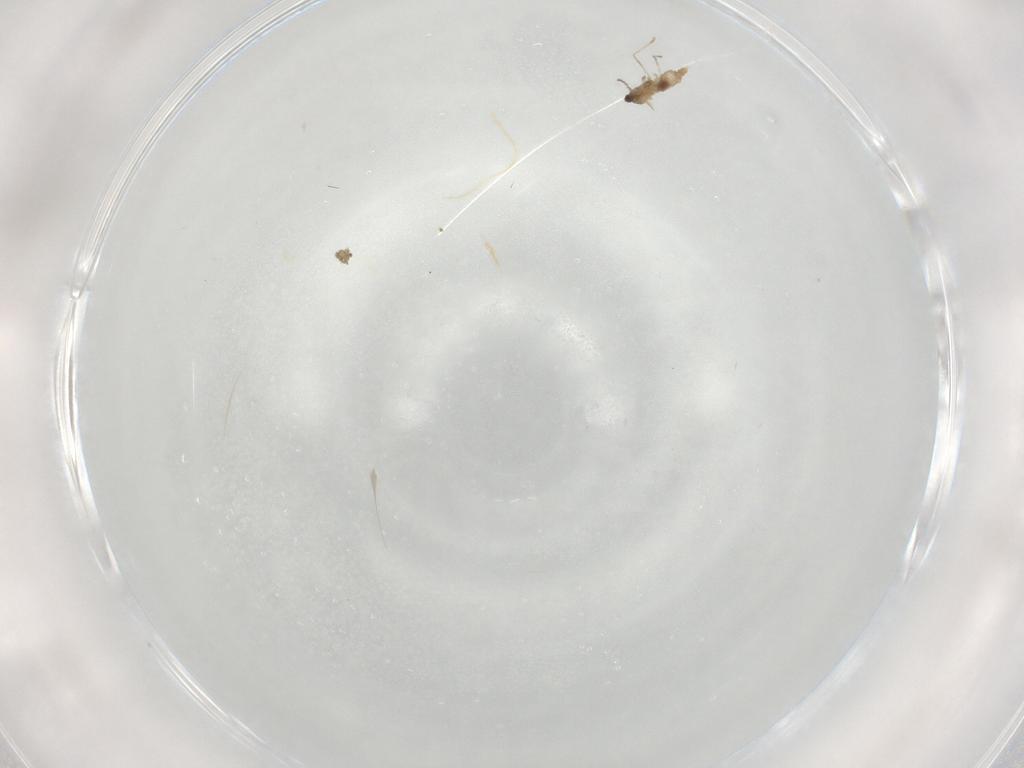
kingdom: Animalia
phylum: Arthropoda
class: Insecta
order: Diptera
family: Cecidomyiidae
